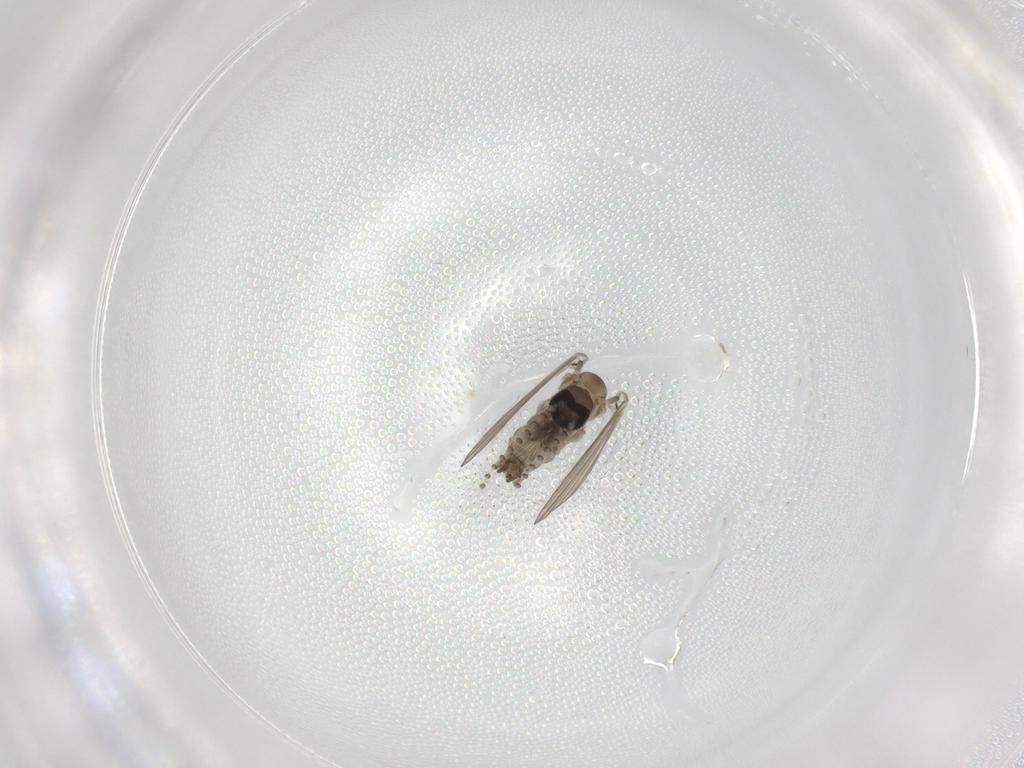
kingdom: Animalia
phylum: Arthropoda
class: Insecta
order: Diptera
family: Psychodidae
